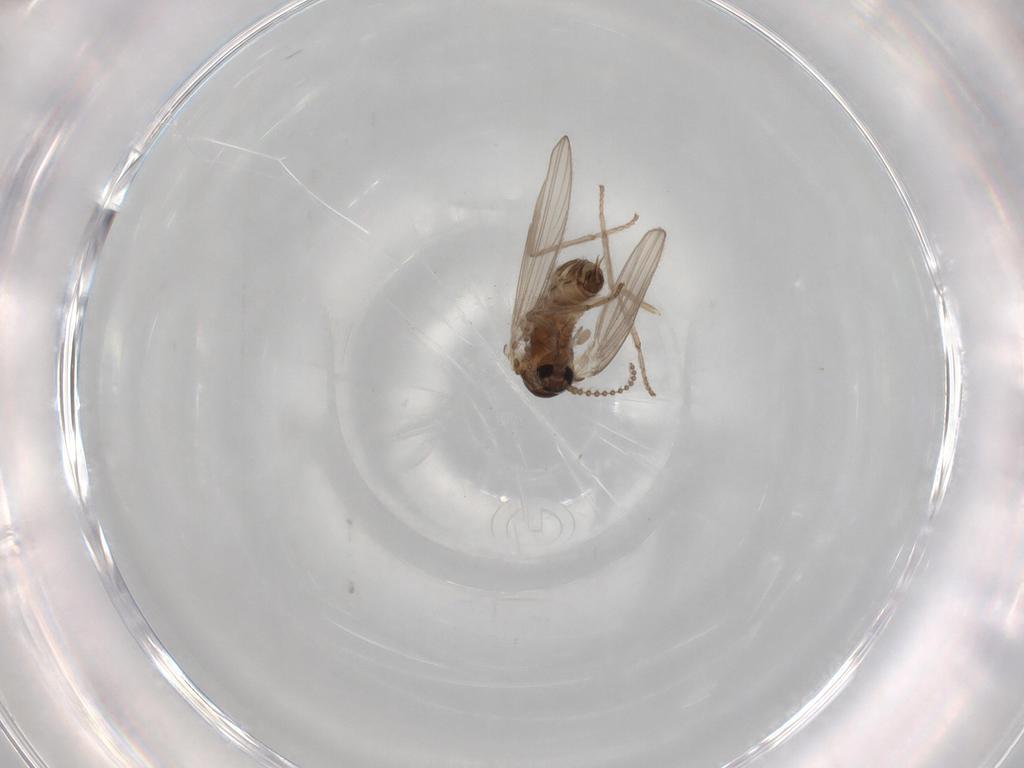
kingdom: Animalia
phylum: Arthropoda
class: Insecta
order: Diptera
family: Psychodidae
